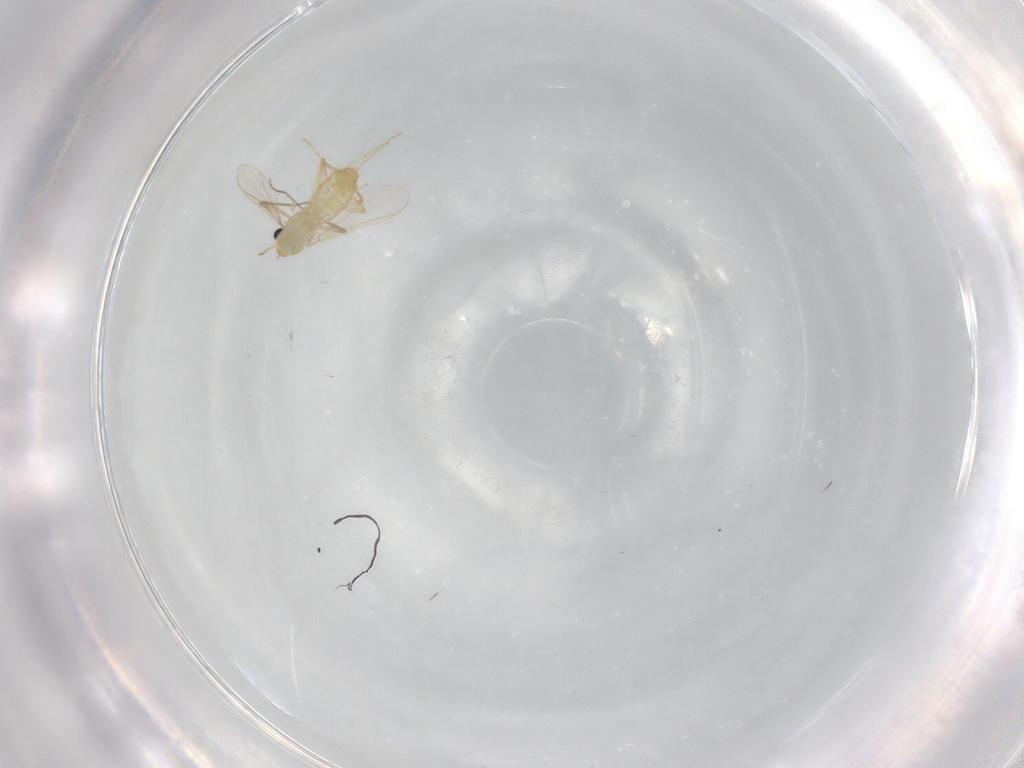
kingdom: Animalia
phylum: Arthropoda
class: Insecta
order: Diptera
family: Chironomidae
